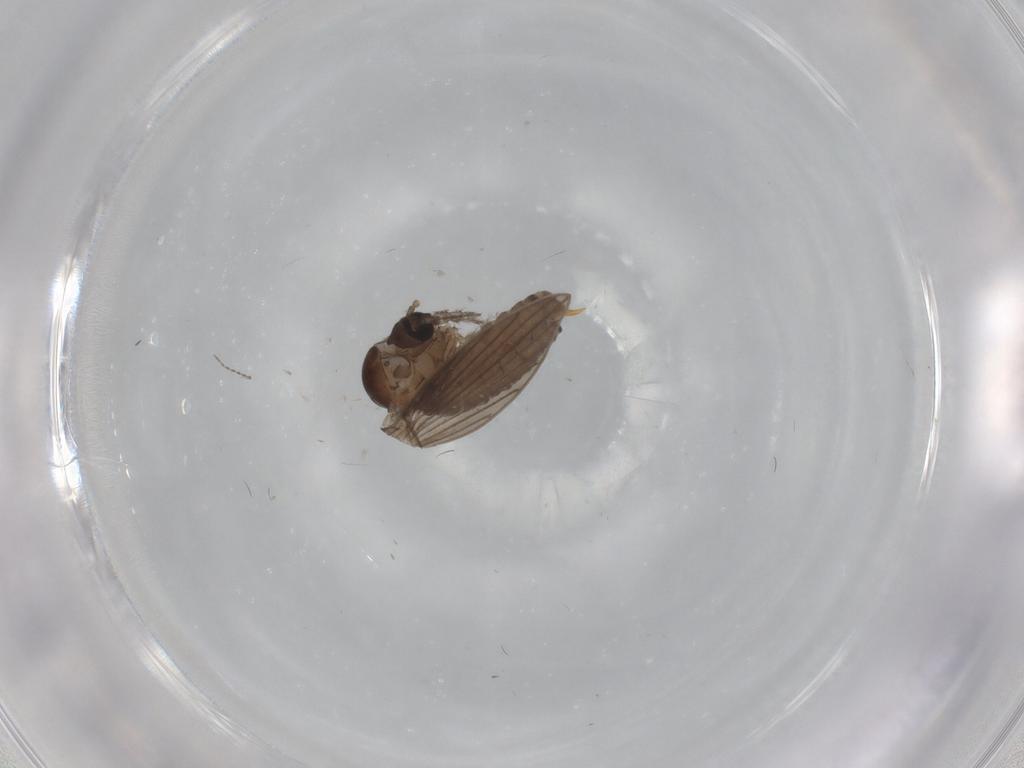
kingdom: Animalia
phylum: Arthropoda
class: Insecta
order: Diptera
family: Psychodidae
